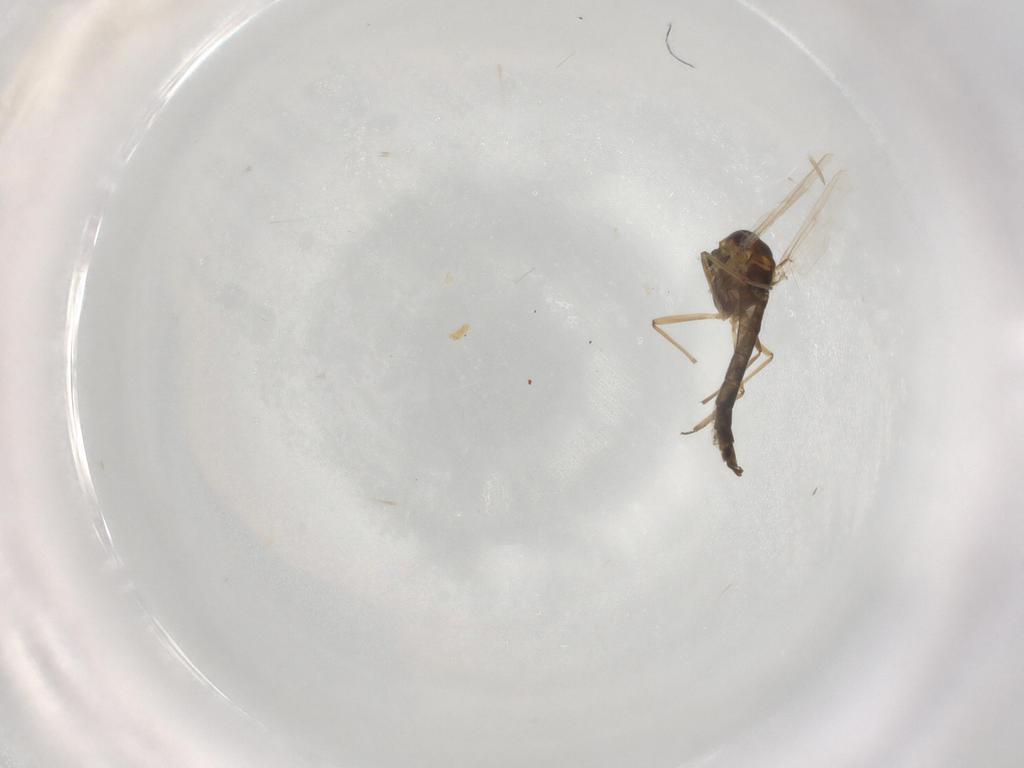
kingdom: Animalia
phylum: Arthropoda
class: Insecta
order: Diptera
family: Chironomidae
